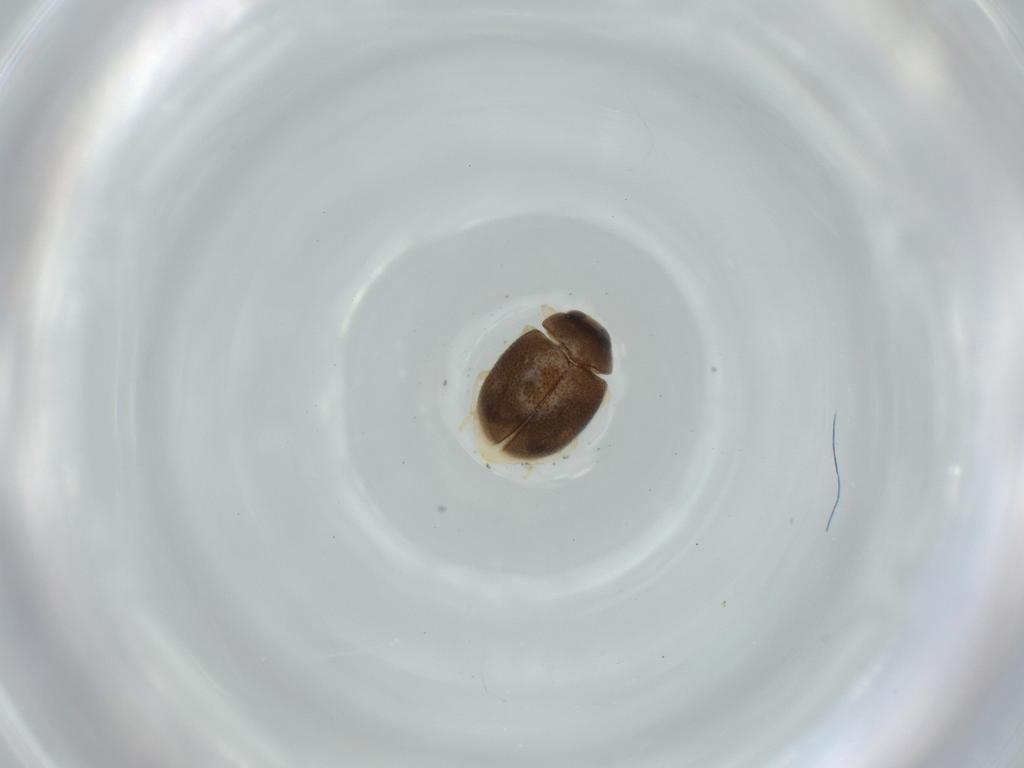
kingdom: Animalia
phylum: Arthropoda
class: Insecta
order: Coleoptera
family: Coccinellidae
